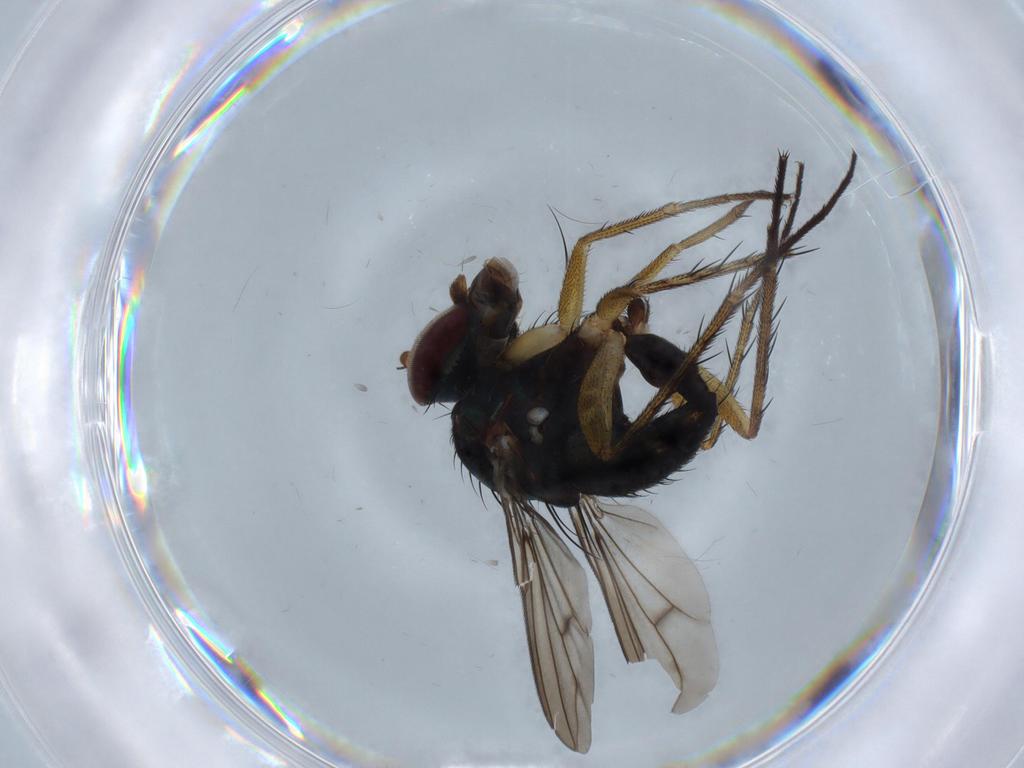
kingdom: Animalia
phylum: Arthropoda
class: Insecta
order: Diptera
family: Chironomidae
